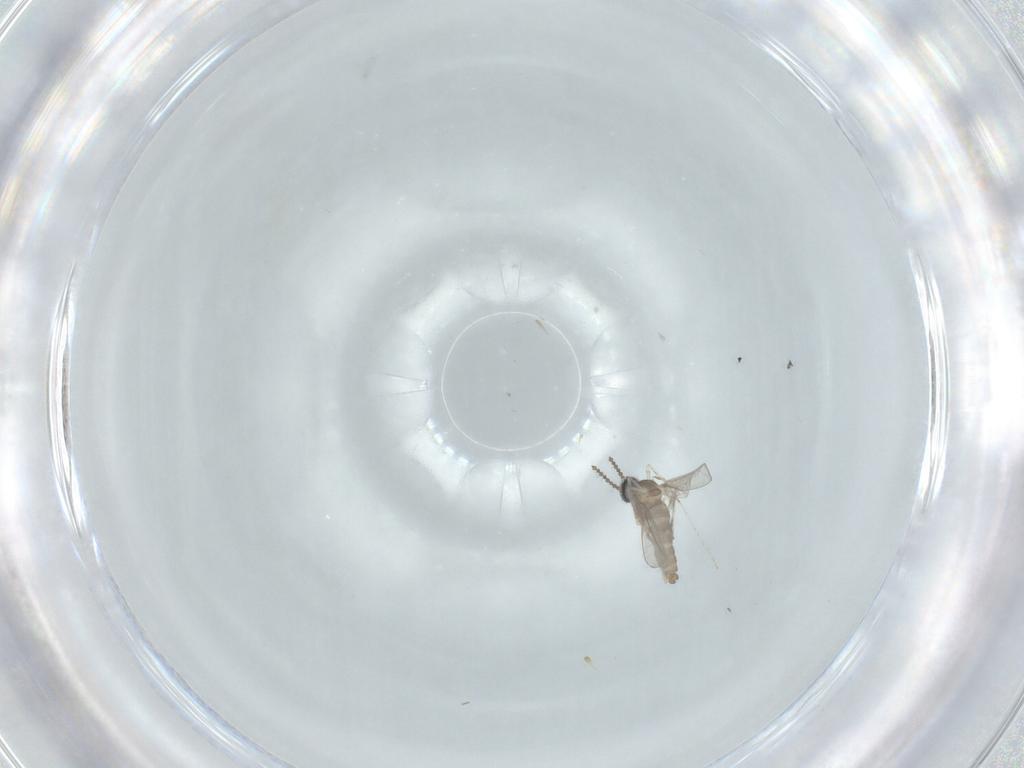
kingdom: Animalia
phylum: Arthropoda
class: Insecta
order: Diptera
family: Cecidomyiidae
